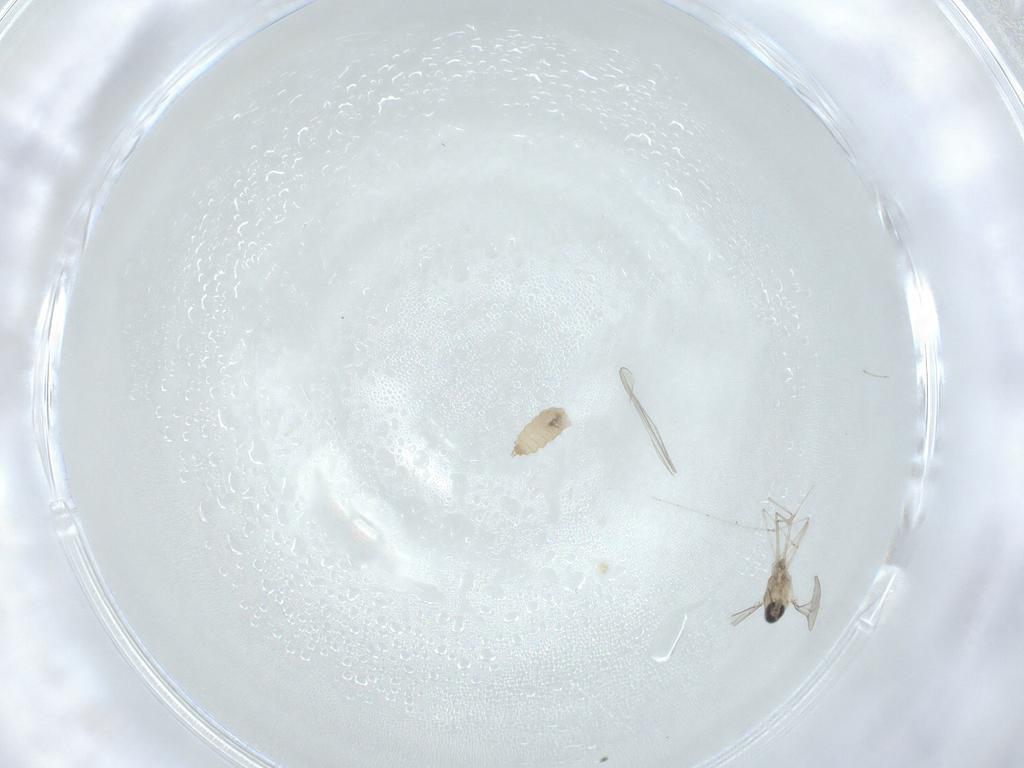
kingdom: Animalia
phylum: Arthropoda
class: Insecta
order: Diptera
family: Cecidomyiidae
